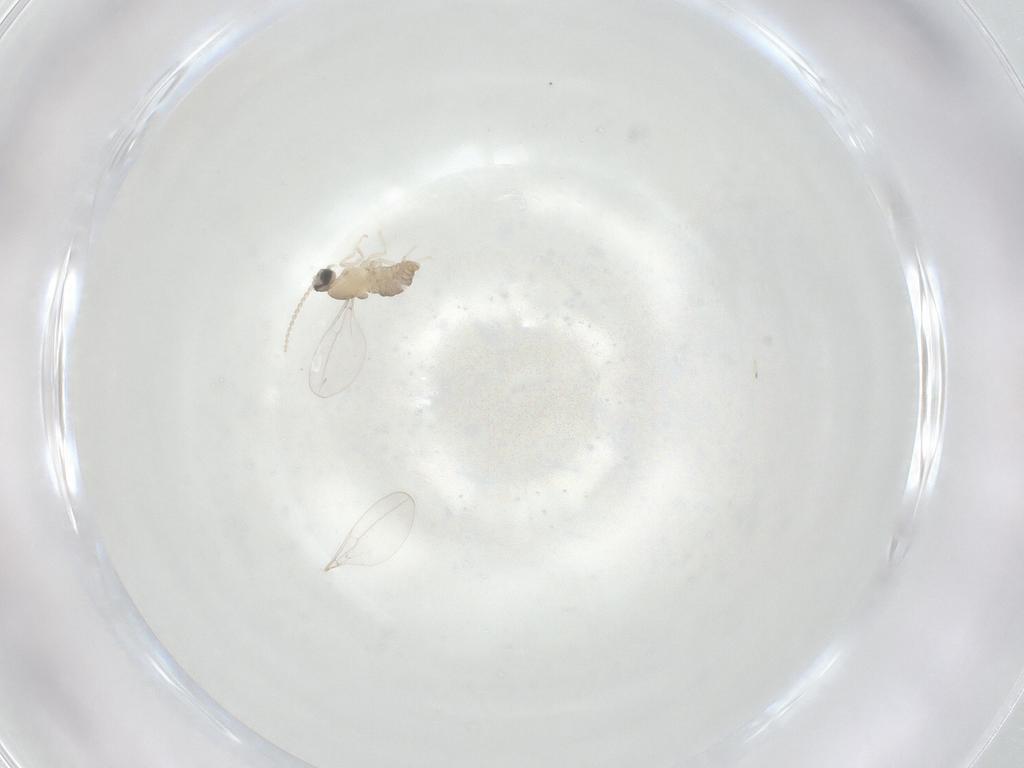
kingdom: Animalia
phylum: Arthropoda
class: Insecta
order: Diptera
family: Cecidomyiidae
